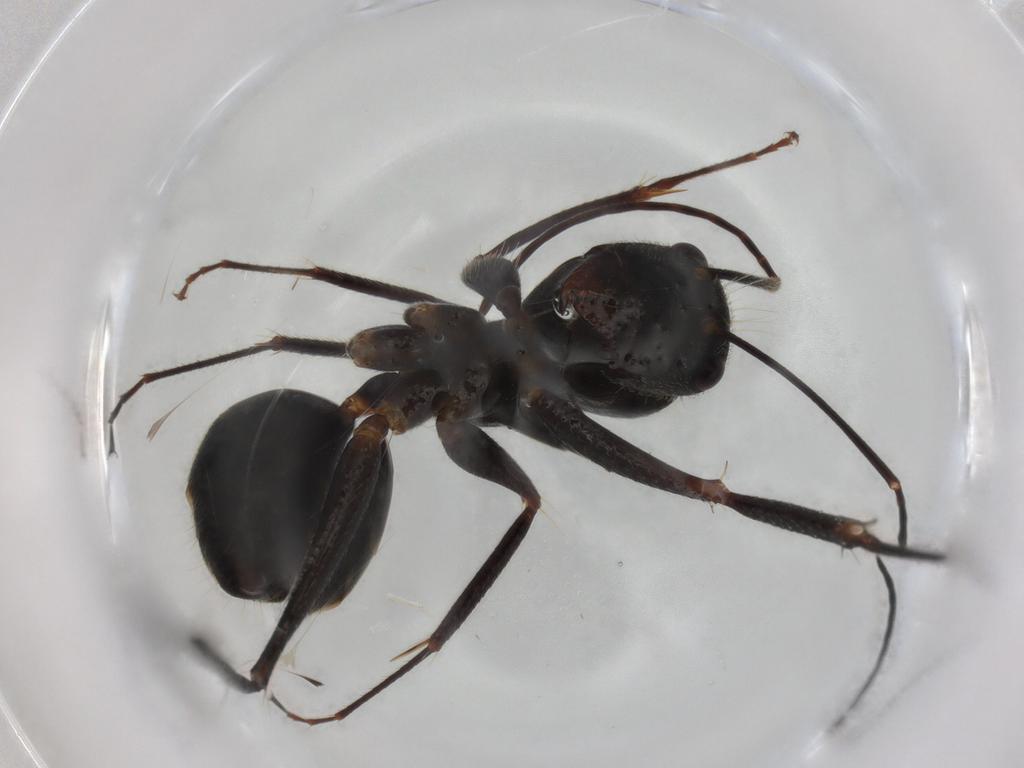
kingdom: Animalia
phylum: Arthropoda
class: Insecta
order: Hymenoptera
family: Formicidae
